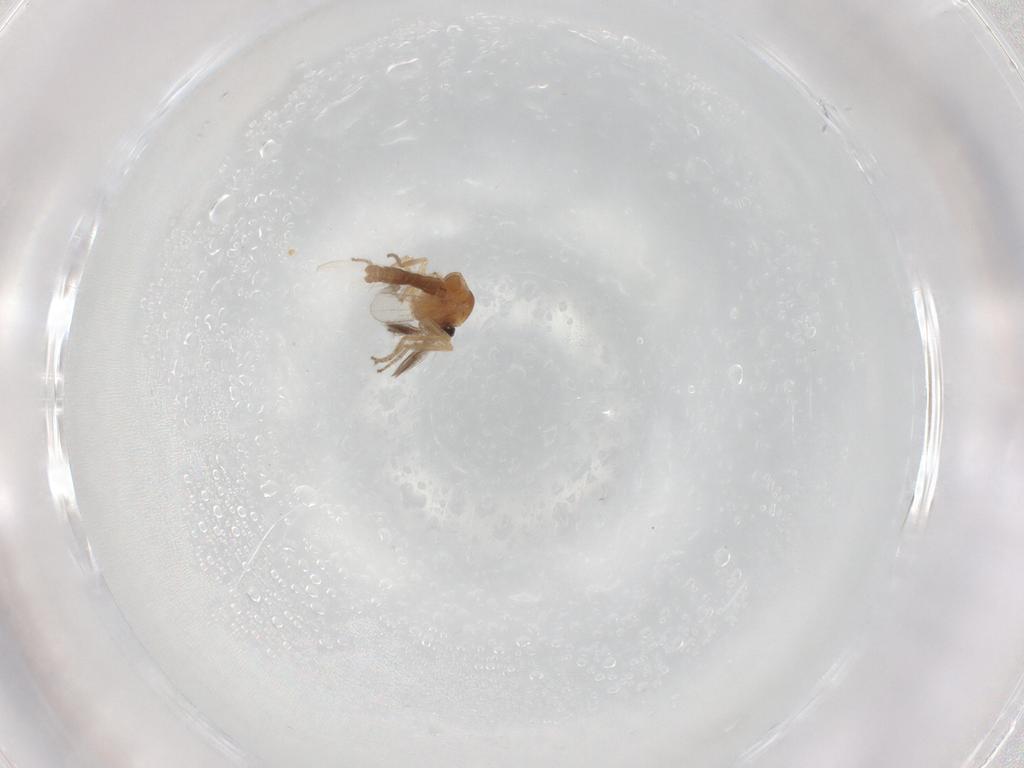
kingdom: Animalia
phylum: Arthropoda
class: Insecta
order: Diptera
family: Ceratopogonidae
